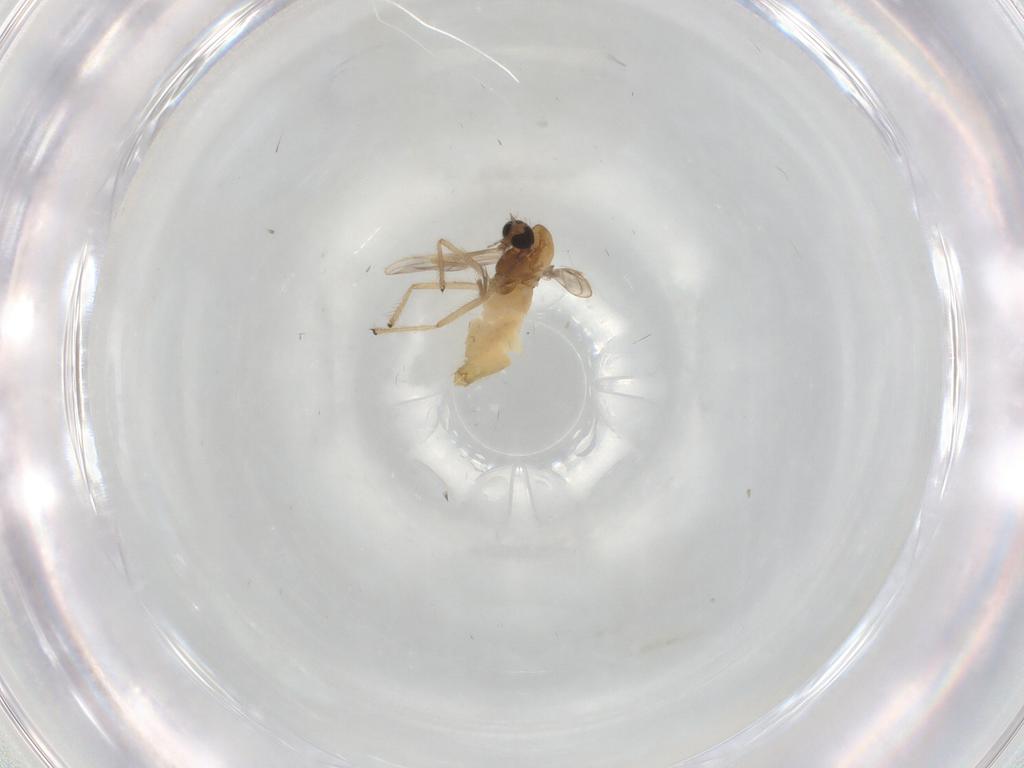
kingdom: Animalia
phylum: Arthropoda
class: Insecta
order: Diptera
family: Chironomidae
